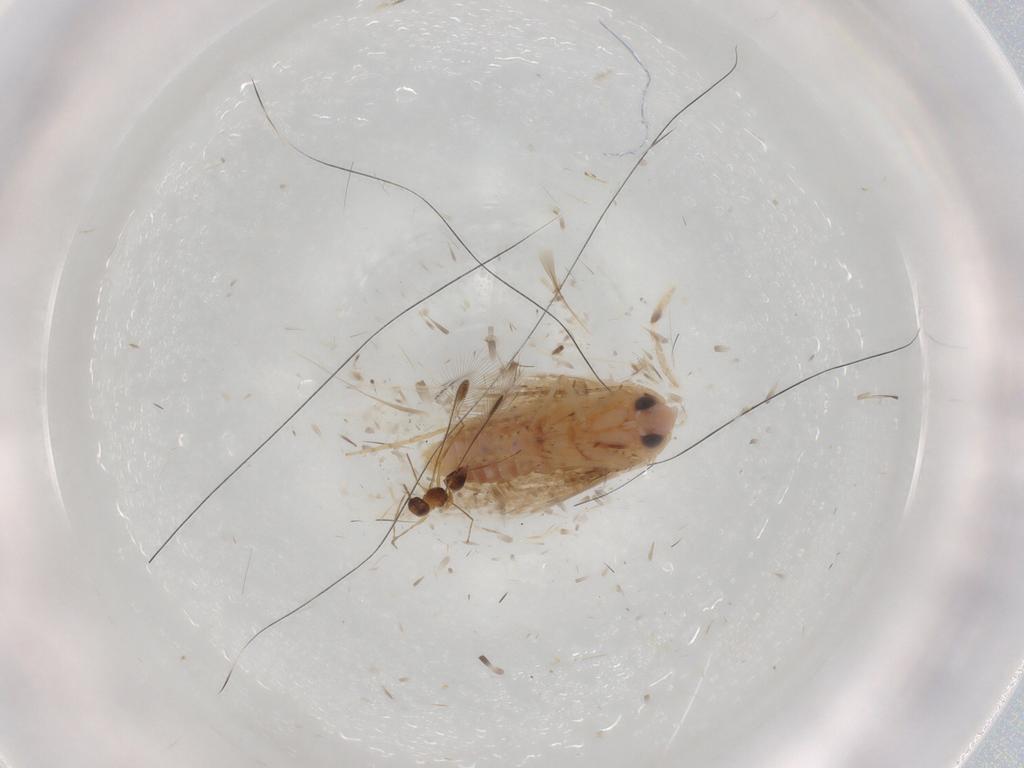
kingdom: Animalia
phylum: Arthropoda
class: Insecta
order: Lepidoptera
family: Bucculatricidae
